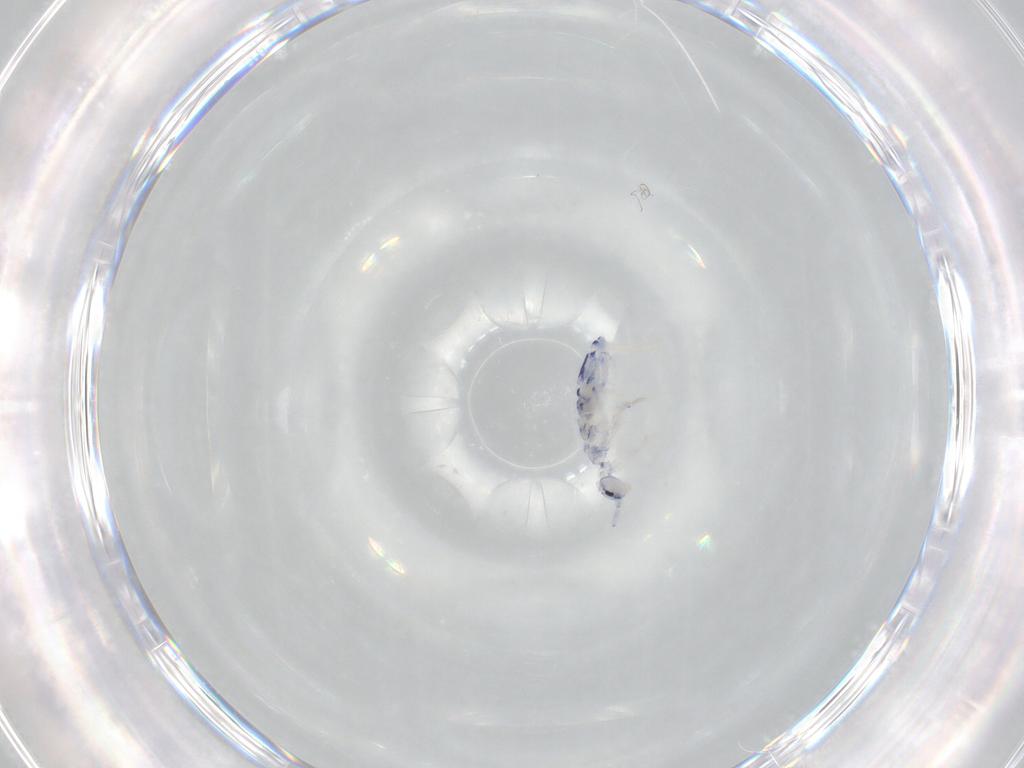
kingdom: Animalia
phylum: Arthropoda
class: Collembola
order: Entomobryomorpha
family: Entomobryidae
